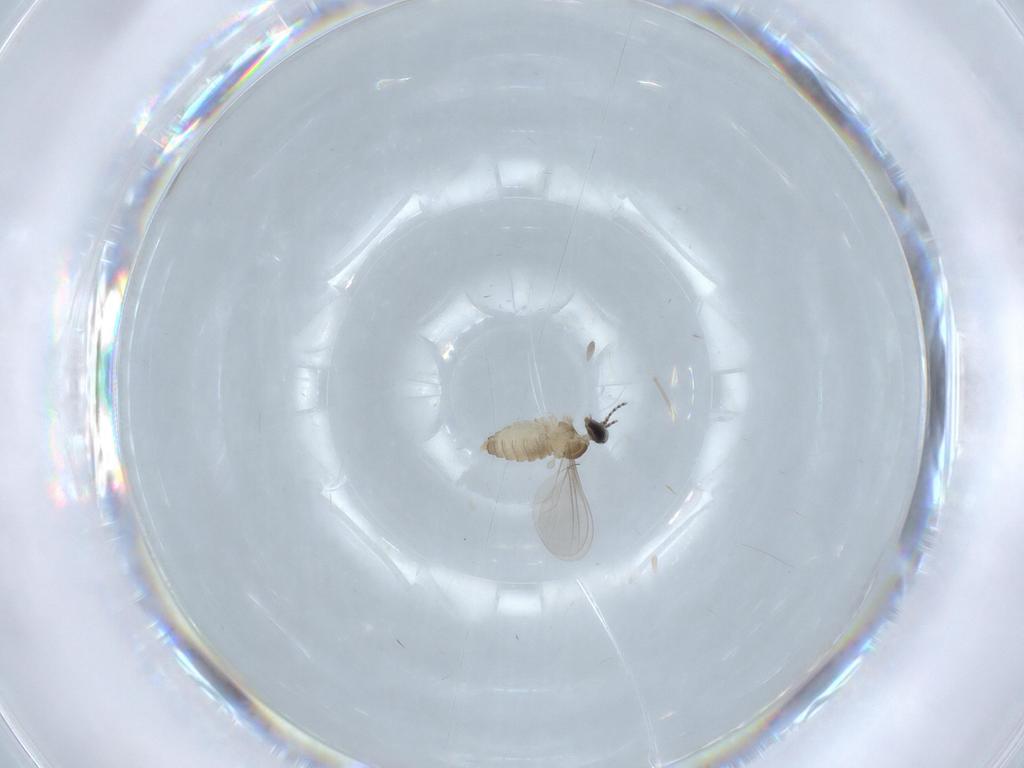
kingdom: Animalia
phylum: Arthropoda
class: Insecta
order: Diptera
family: Cecidomyiidae
